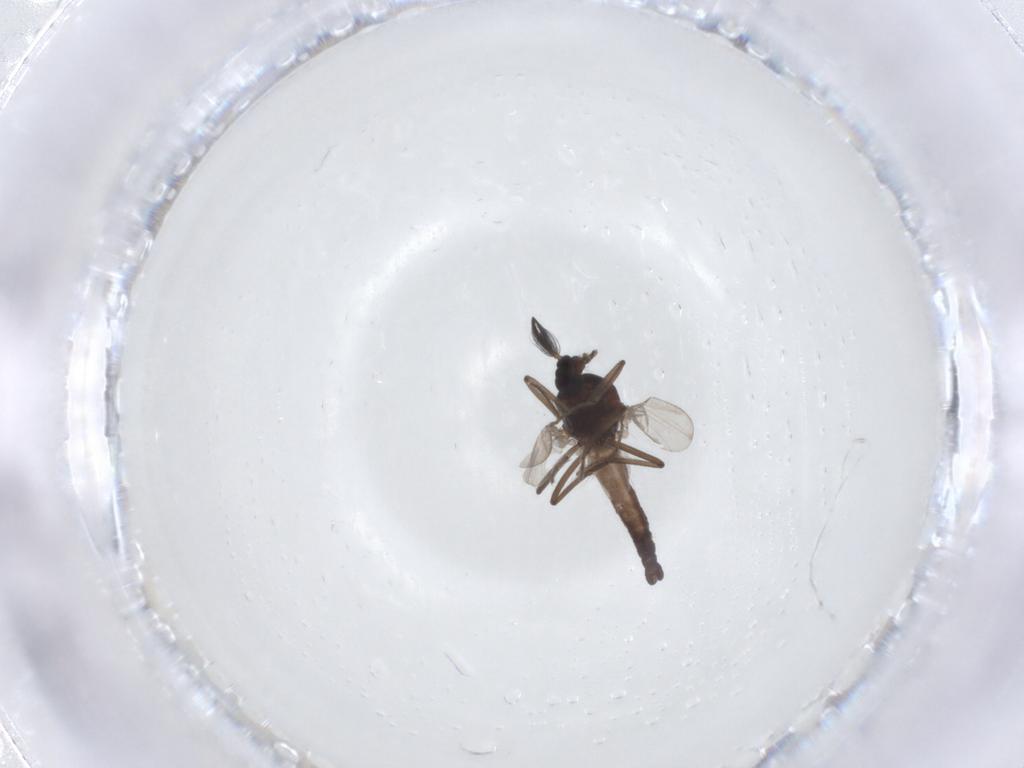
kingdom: Animalia
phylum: Arthropoda
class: Insecta
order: Diptera
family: Ceratopogonidae
